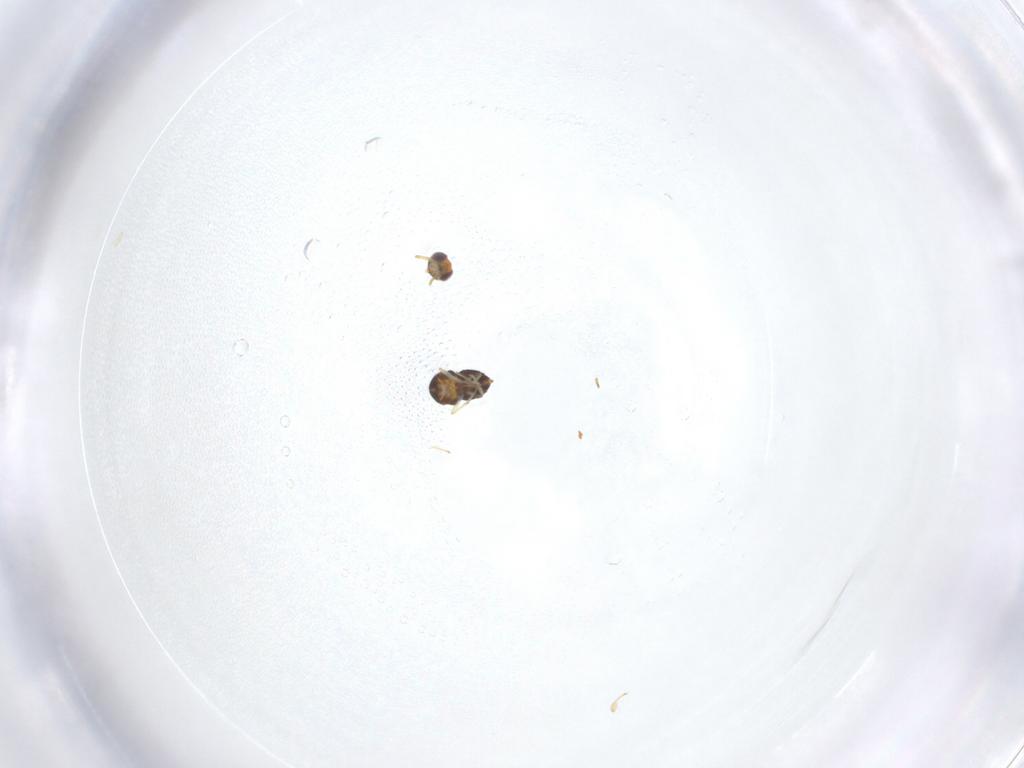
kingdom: Animalia
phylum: Arthropoda
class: Insecta
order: Hymenoptera
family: Aphelinidae
